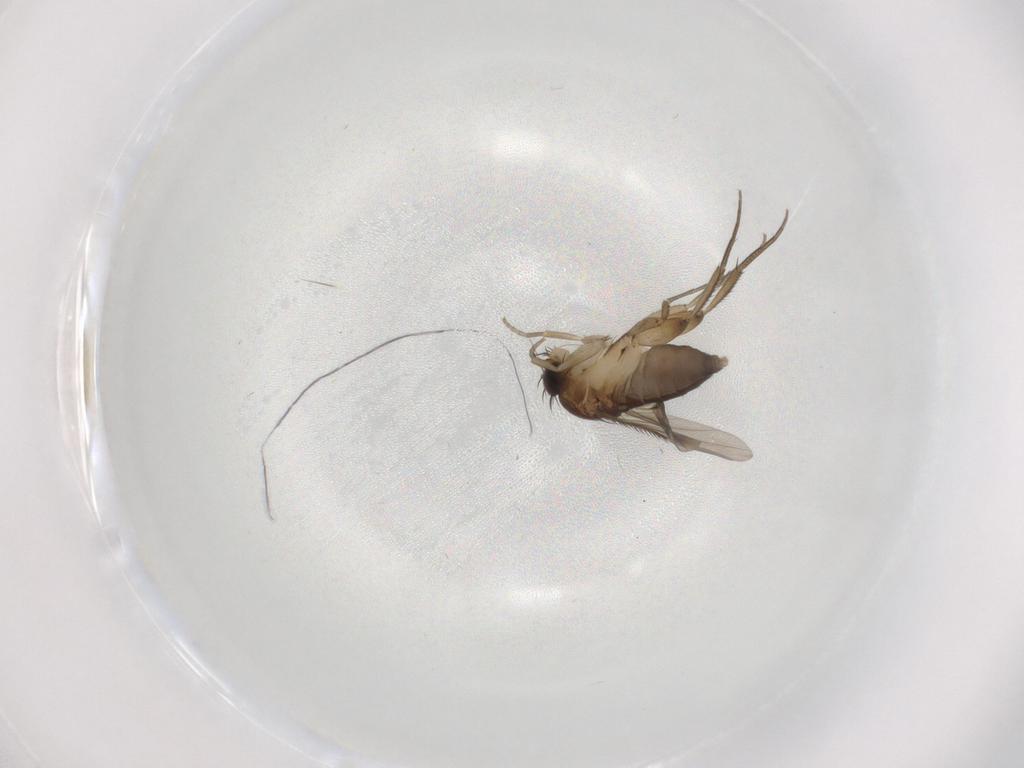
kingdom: Animalia
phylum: Arthropoda
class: Insecta
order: Diptera
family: Phoridae
